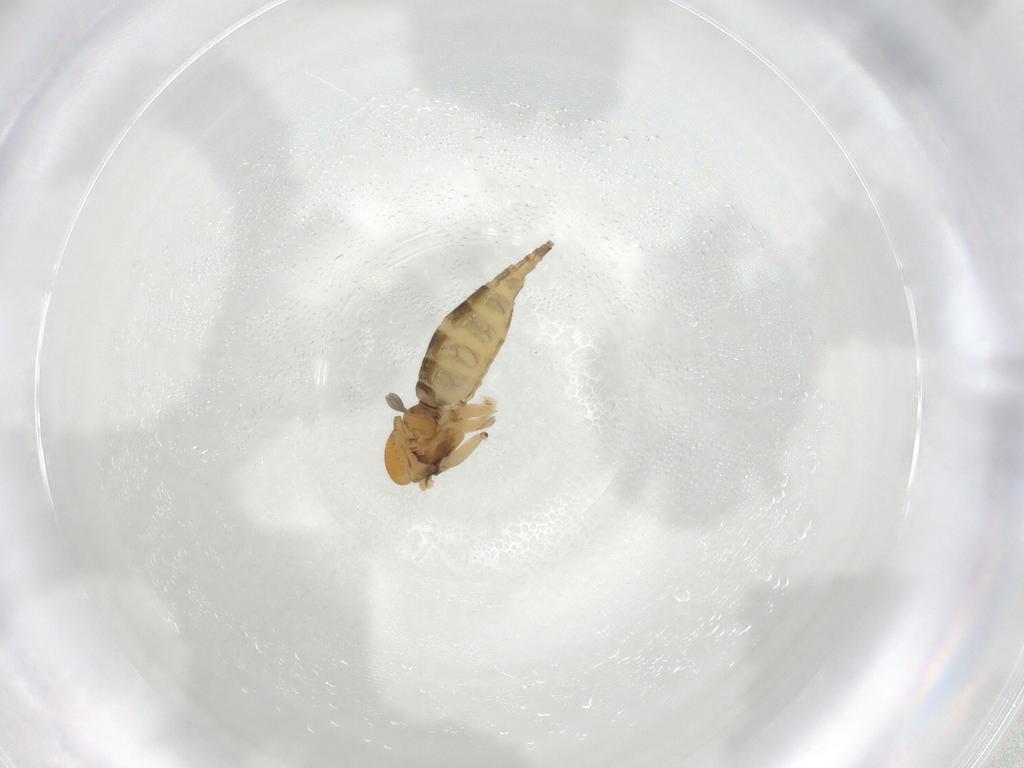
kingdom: Animalia
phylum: Arthropoda
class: Insecta
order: Diptera
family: Sciaridae
